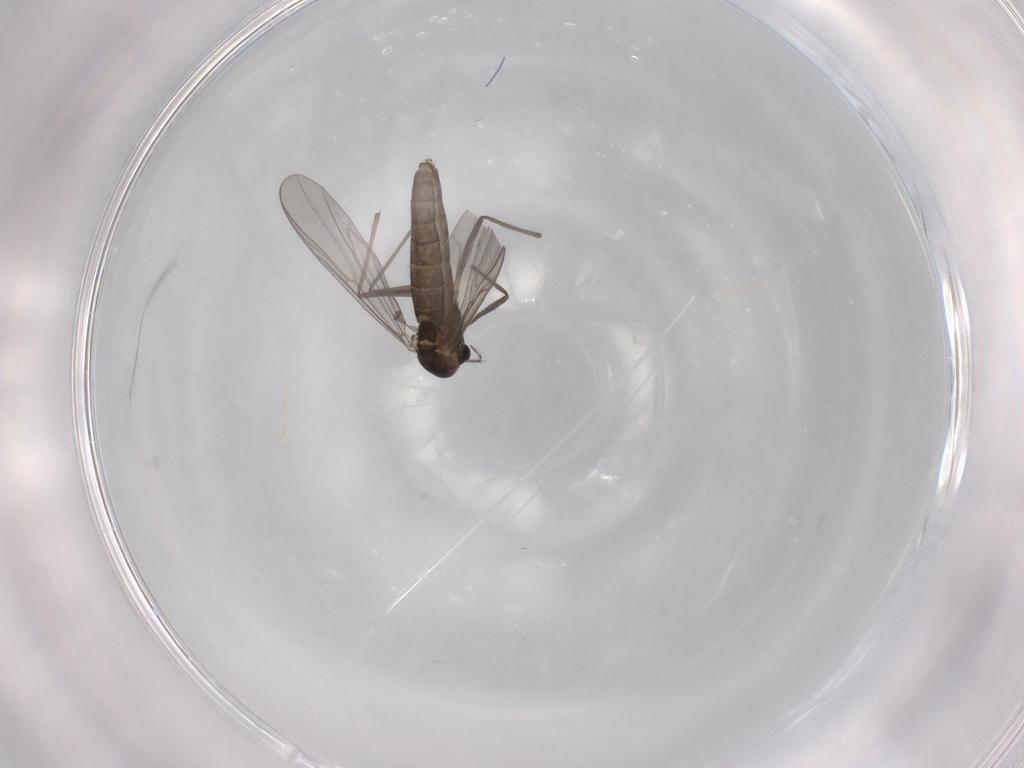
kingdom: Animalia
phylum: Arthropoda
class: Insecta
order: Diptera
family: Chironomidae
